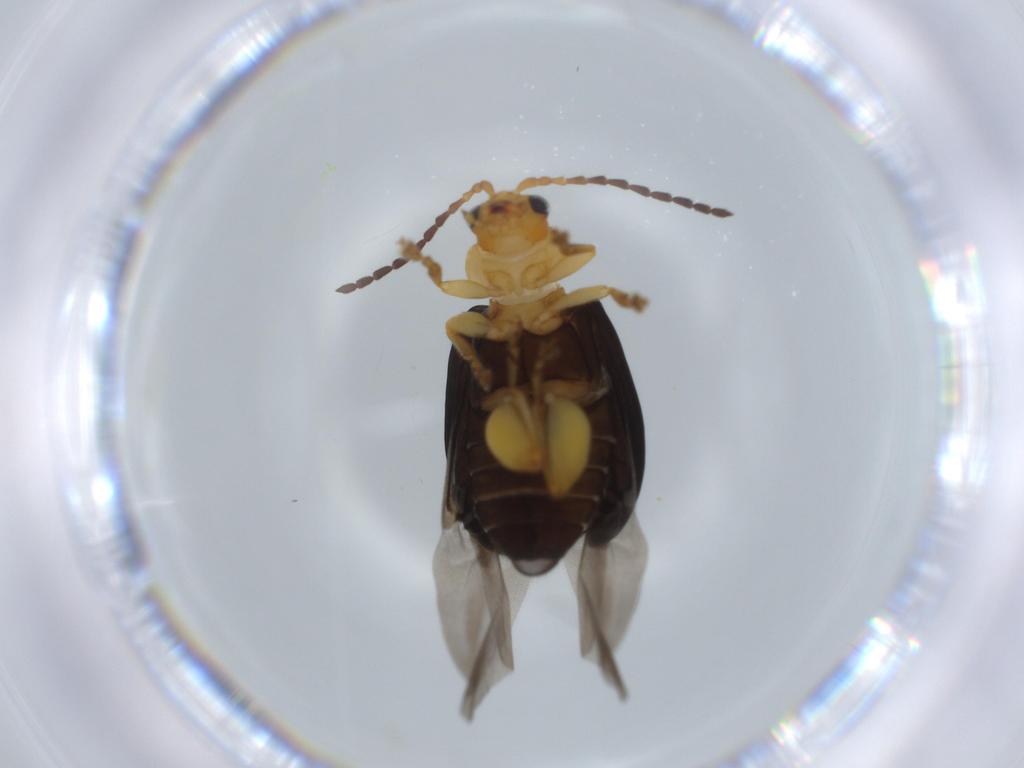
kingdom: Animalia
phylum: Arthropoda
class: Insecta
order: Coleoptera
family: Chrysomelidae
